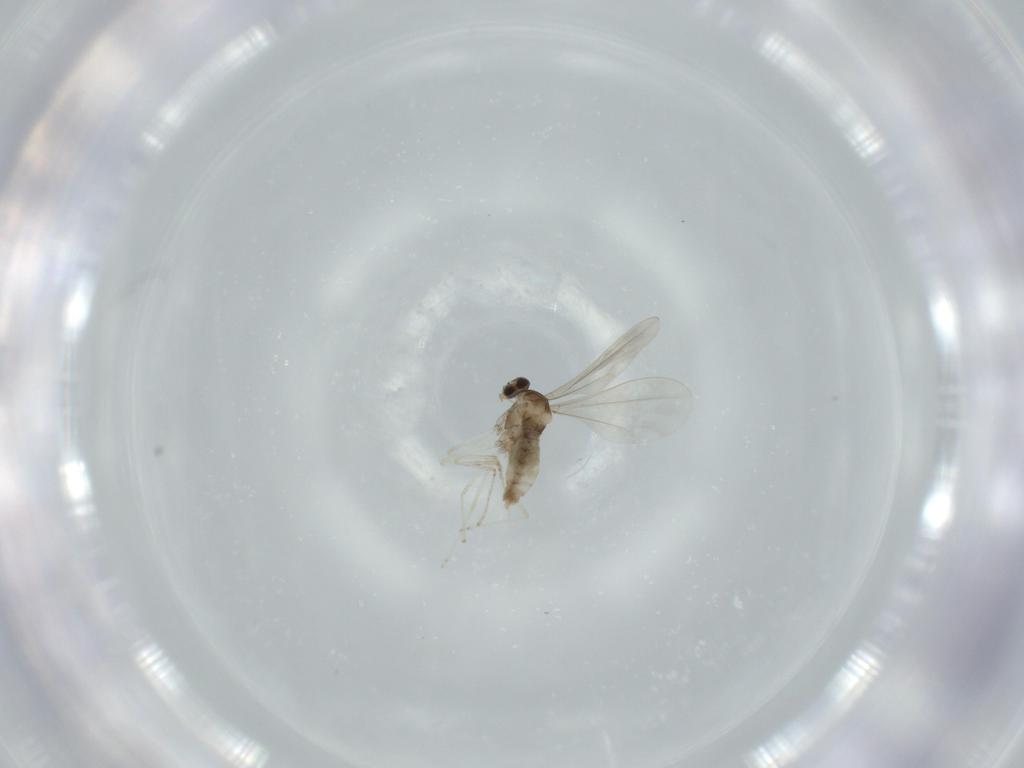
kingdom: Animalia
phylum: Arthropoda
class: Insecta
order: Diptera
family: Cecidomyiidae
